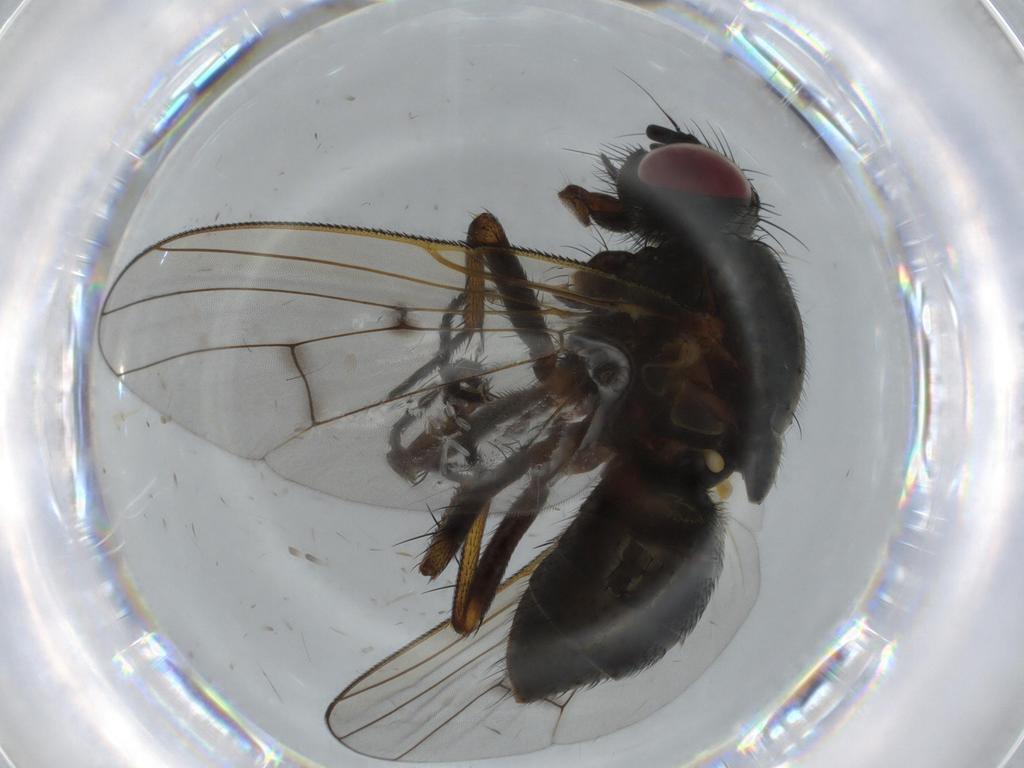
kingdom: Animalia
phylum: Arthropoda
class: Insecta
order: Diptera
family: Muscidae
